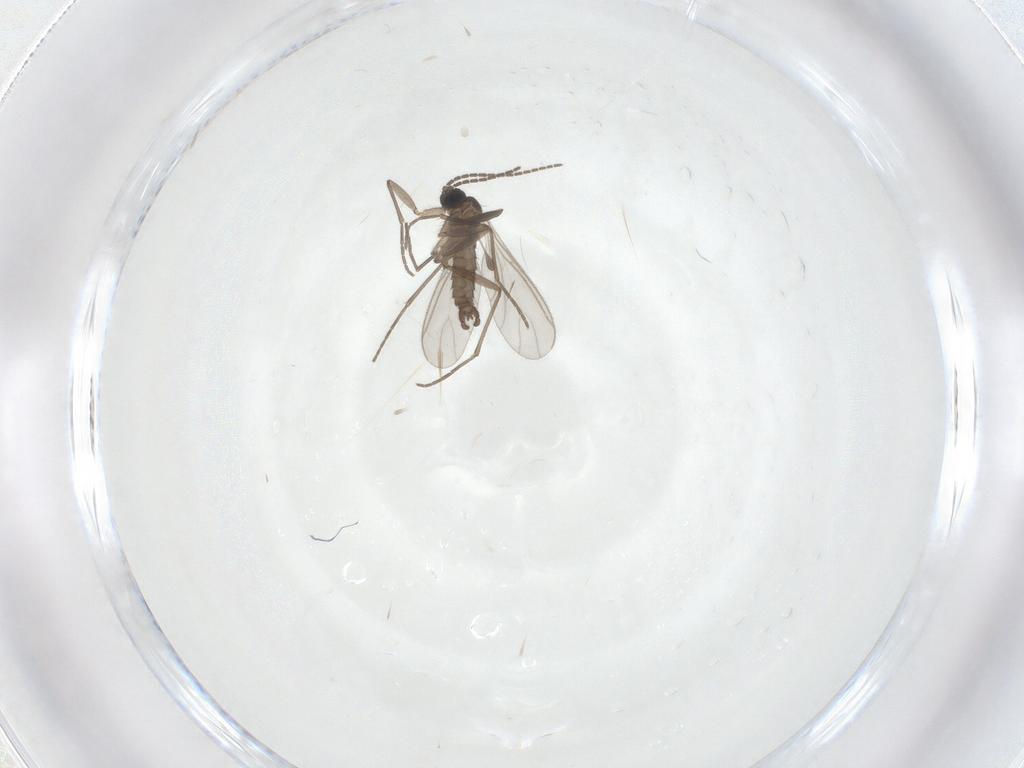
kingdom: Animalia
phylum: Arthropoda
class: Insecta
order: Diptera
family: Sciaridae
